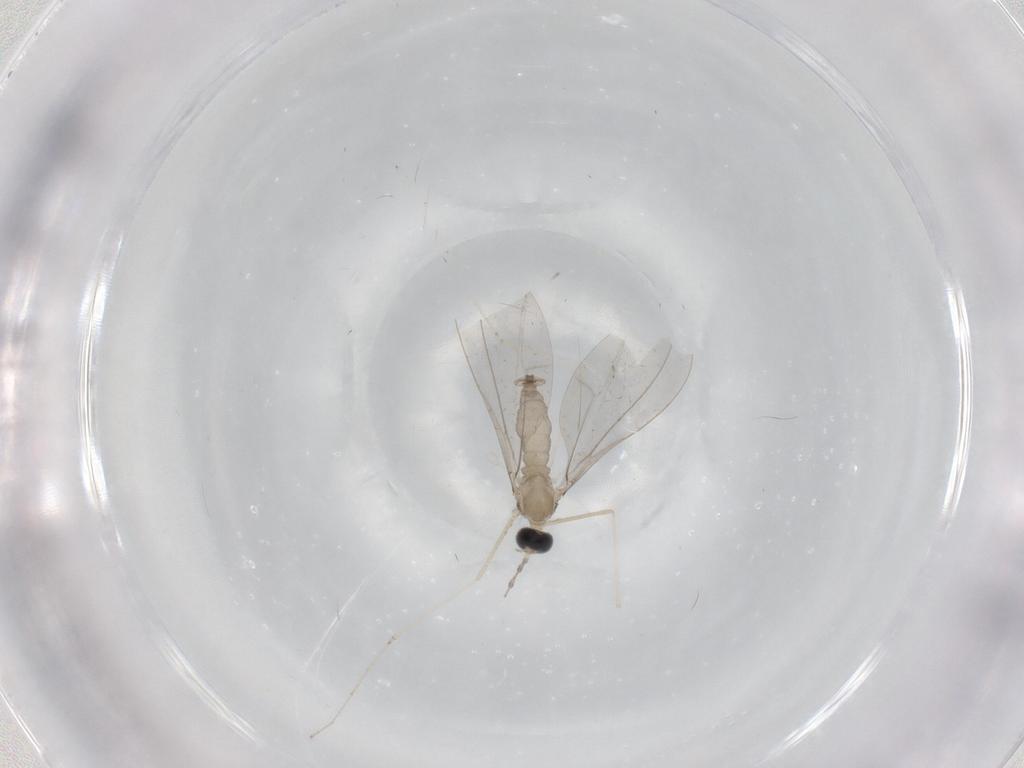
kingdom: Animalia
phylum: Arthropoda
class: Insecta
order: Diptera
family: Cecidomyiidae
